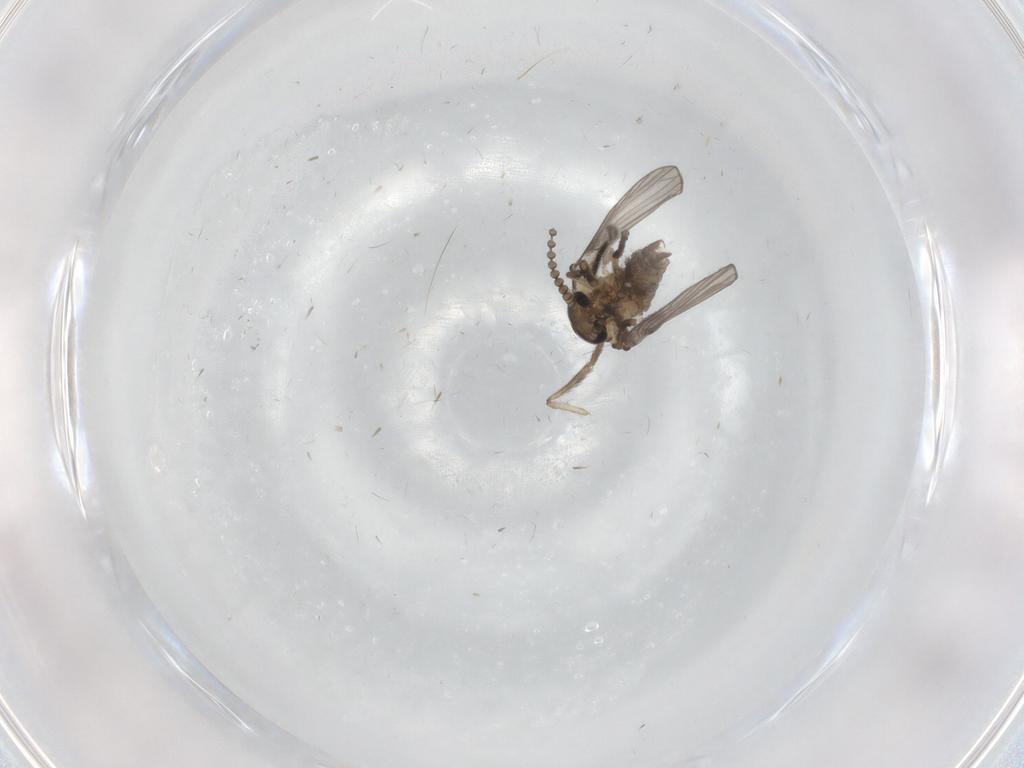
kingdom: Animalia
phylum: Arthropoda
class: Insecta
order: Diptera
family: Psychodidae
